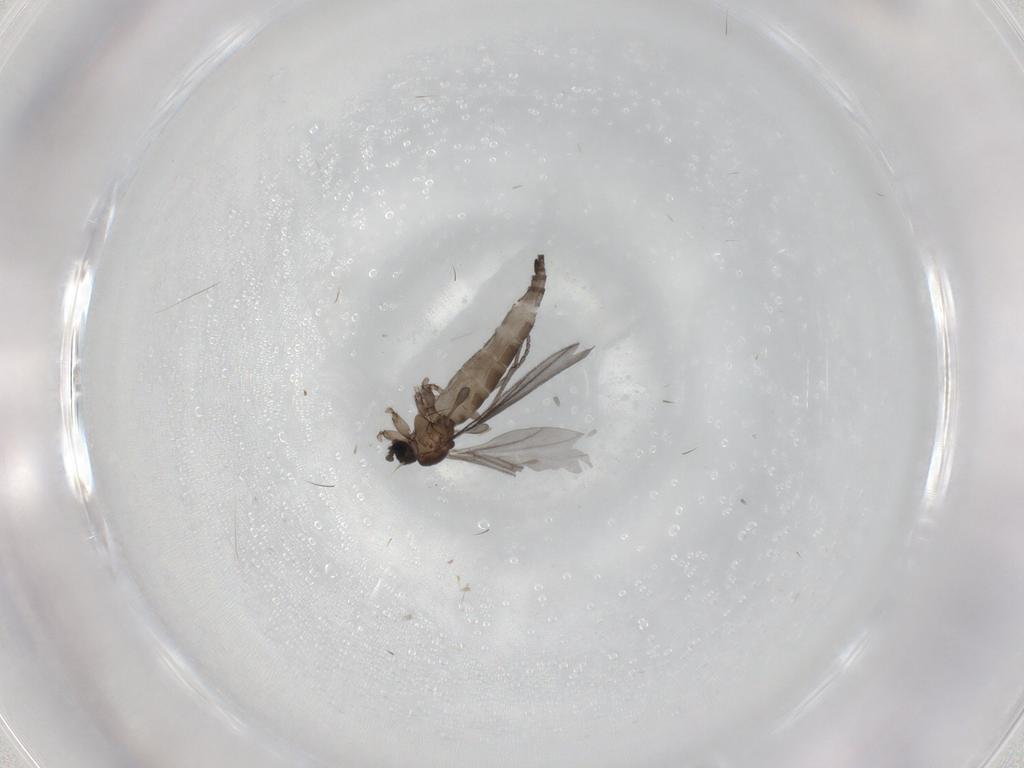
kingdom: Animalia
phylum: Arthropoda
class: Insecta
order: Diptera
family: Sciaridae
